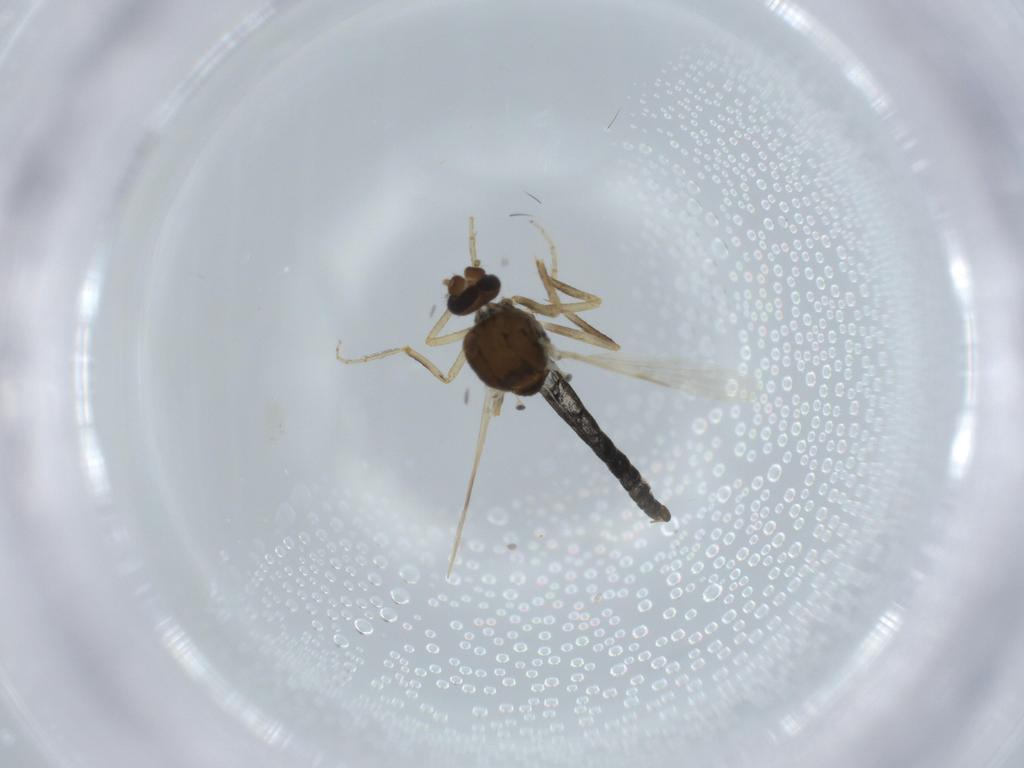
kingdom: Animalia
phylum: Arthropoda
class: Insecta
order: Diptera
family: Ceratopogonidae
